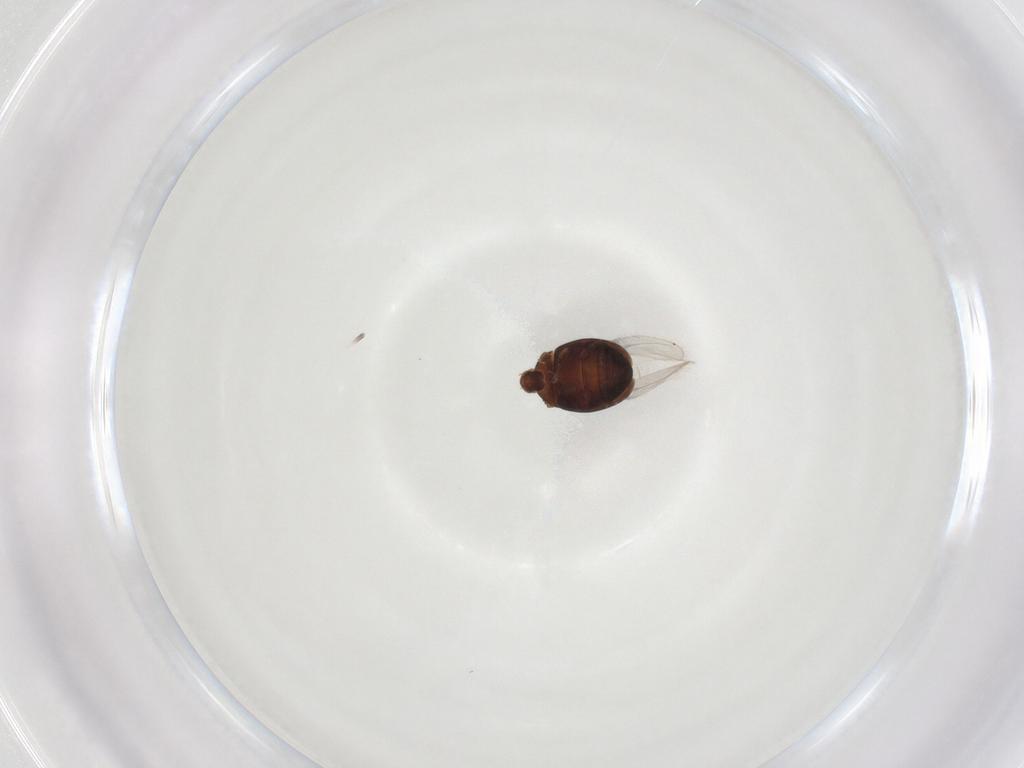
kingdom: Animalia
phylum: Arthropoda
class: Insecta
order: Coleoptera
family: Corylophidae
